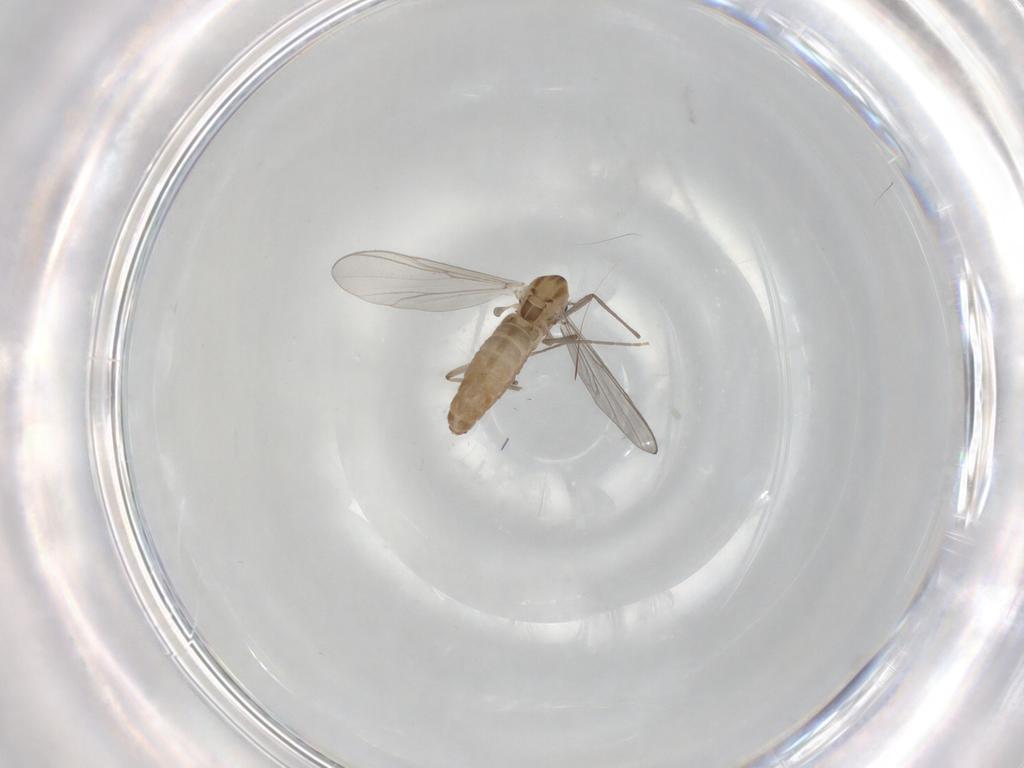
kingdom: Animalia
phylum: Arthropoda
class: Insecta
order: Diptera
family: Chironomidae
